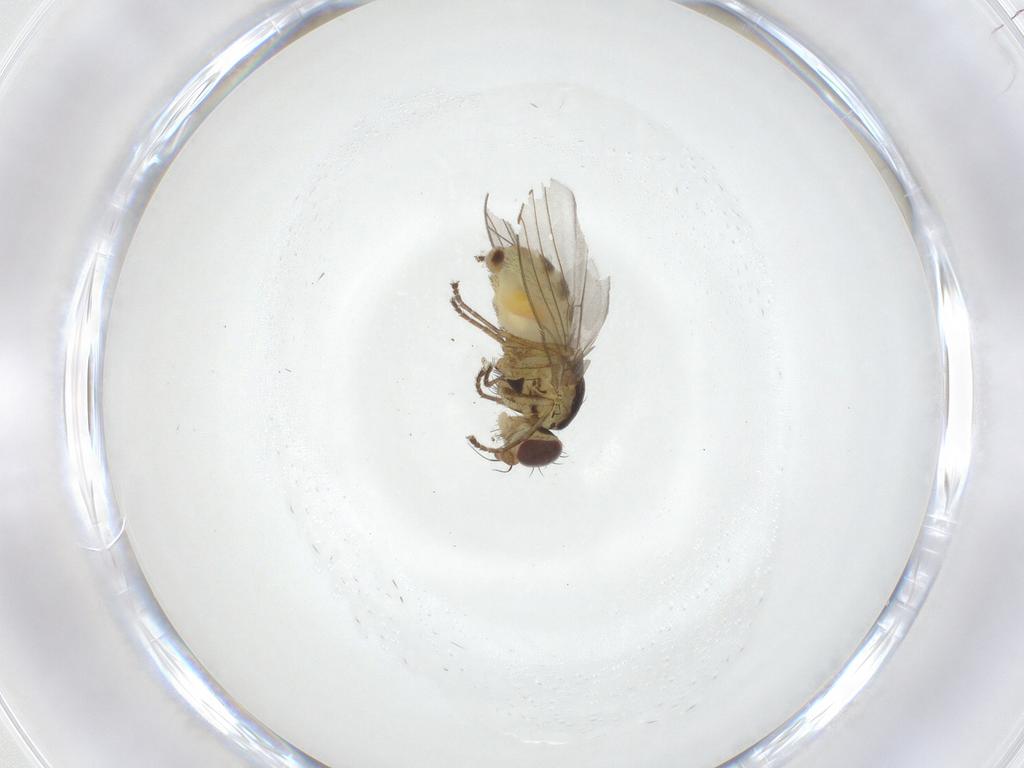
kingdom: Animalia
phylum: Arthropoda
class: Insecta
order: Diptera
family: Agromyzidae
